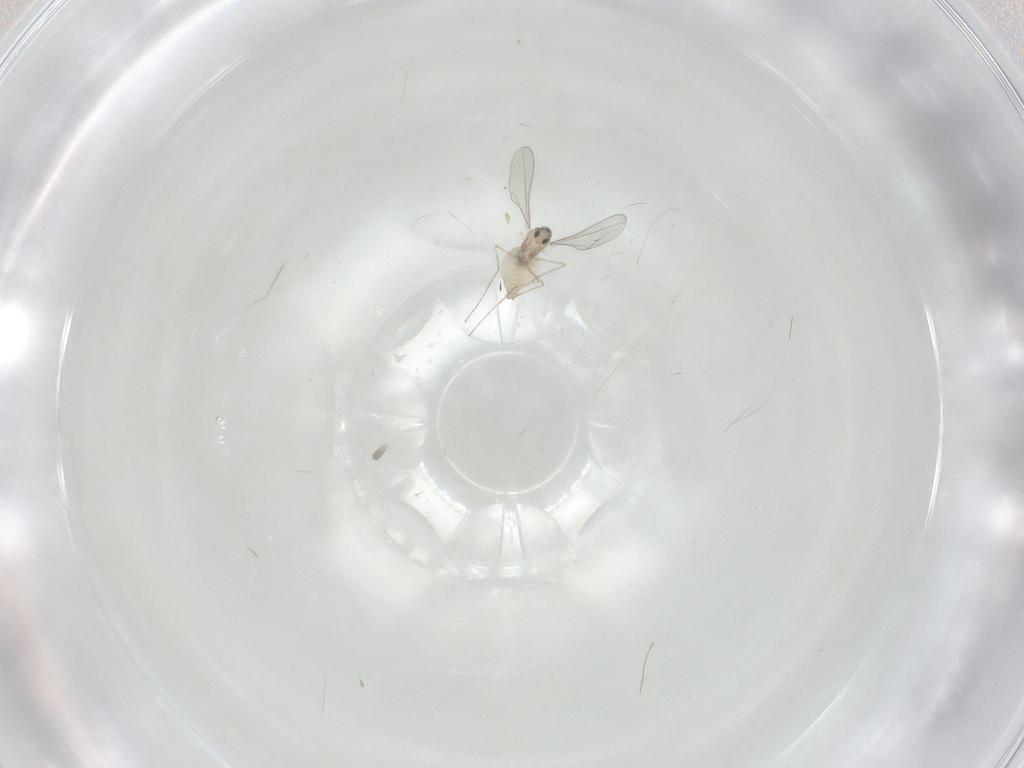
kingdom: Animalia
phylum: Arthropoda
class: Insecta
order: Diptera
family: Cecidomyiidae
